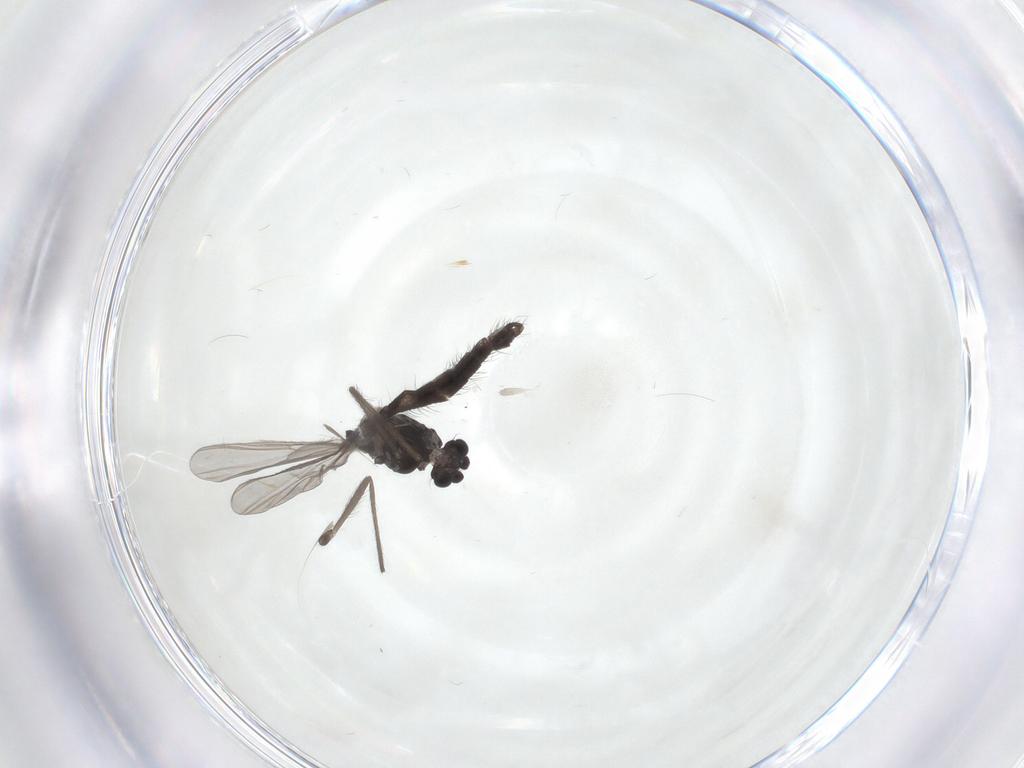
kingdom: Animalia
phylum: Arthropoda
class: Insecta
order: Diptera
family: Chironomidae
